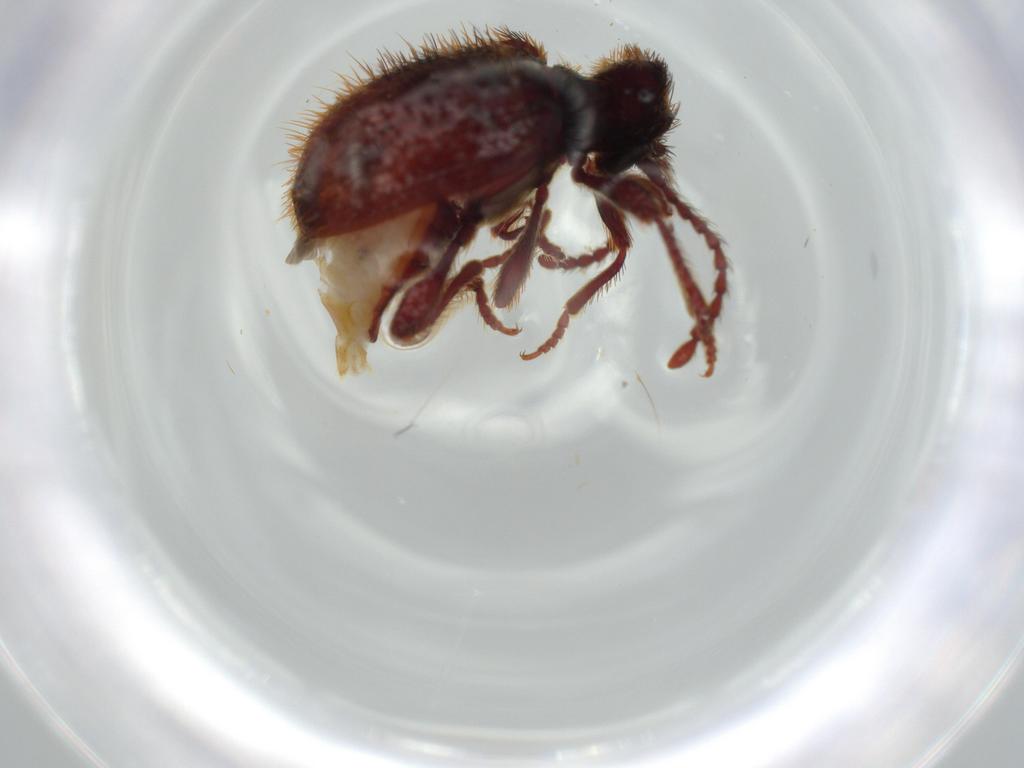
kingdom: Animalia
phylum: Arthropoda
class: Insecta
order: Coleoptera
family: Ptinidae
